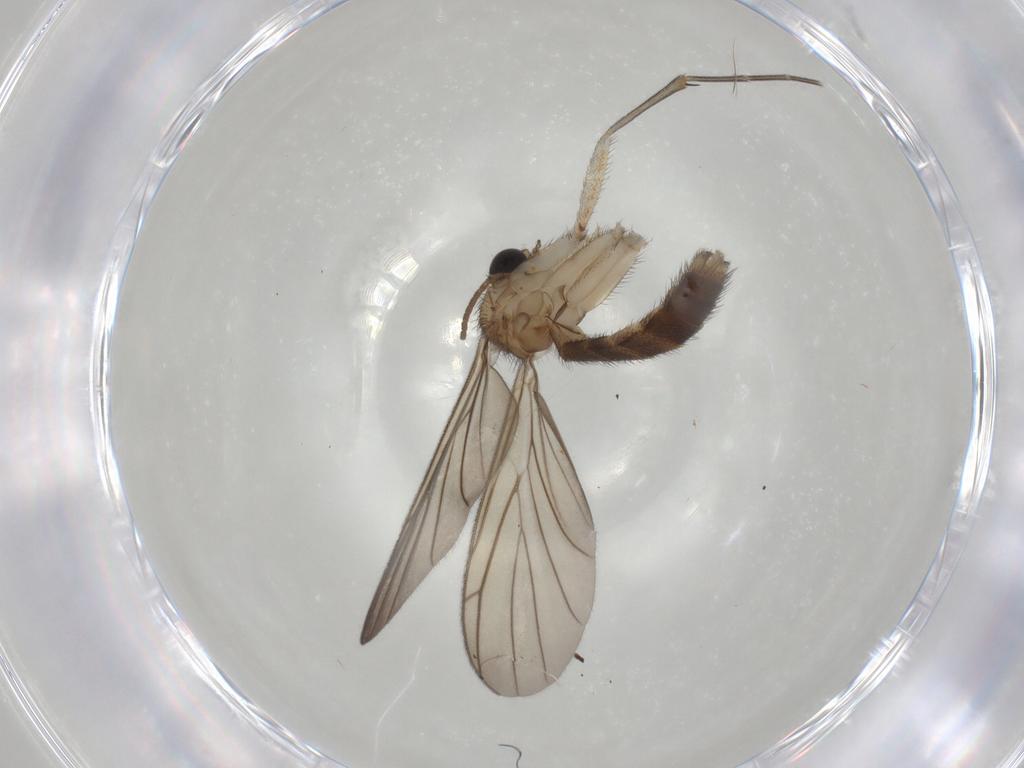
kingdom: Animalia
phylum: Arthropoda
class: Insecta
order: Diptera
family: Keroplatidae
